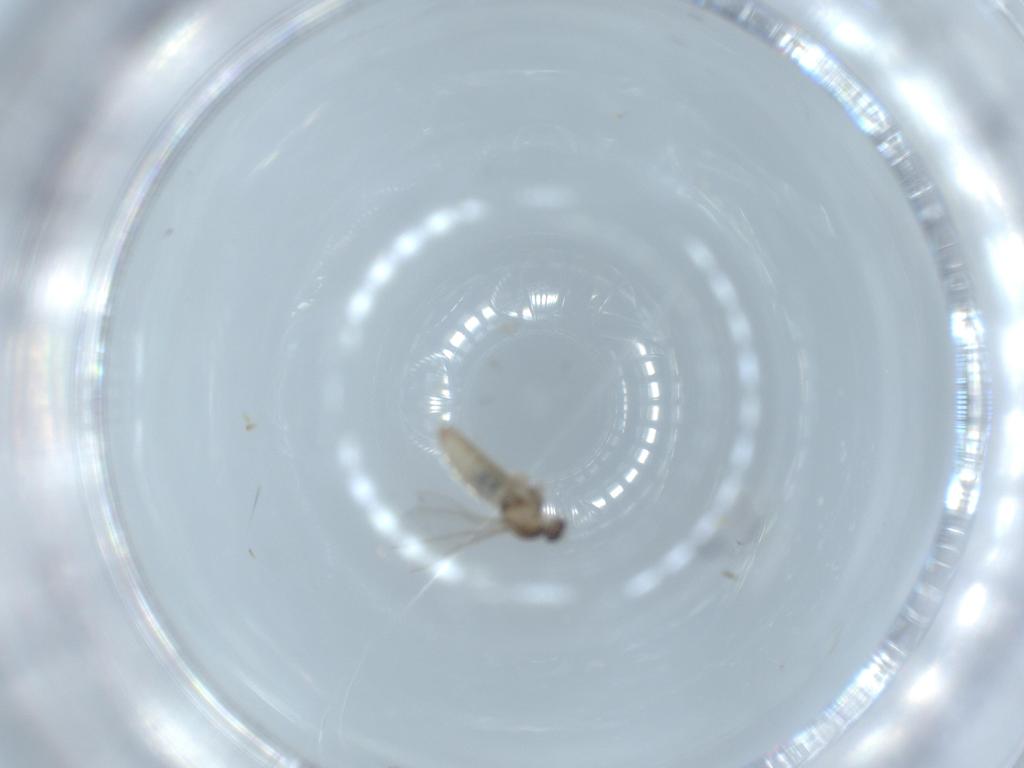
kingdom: Animalia
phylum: Arthropoda
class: Insecta
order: Diptera
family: Cecidomyiidae
